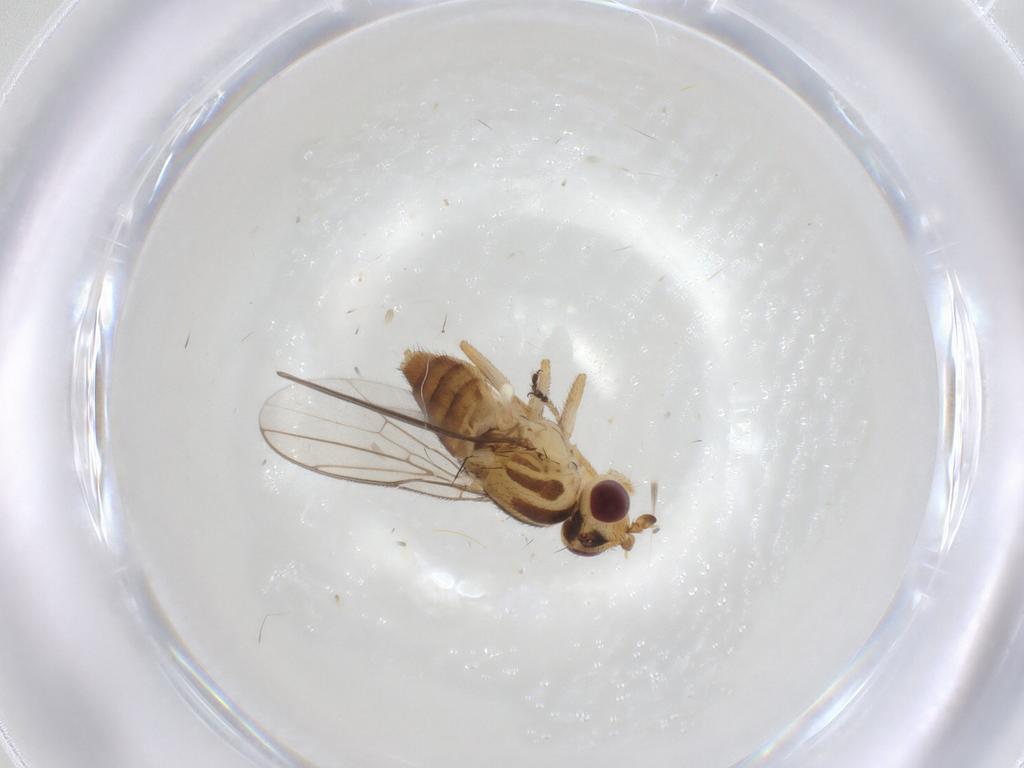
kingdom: Animalia
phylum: Arthropoda
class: Insecta
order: Diptera
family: Chloropidae
